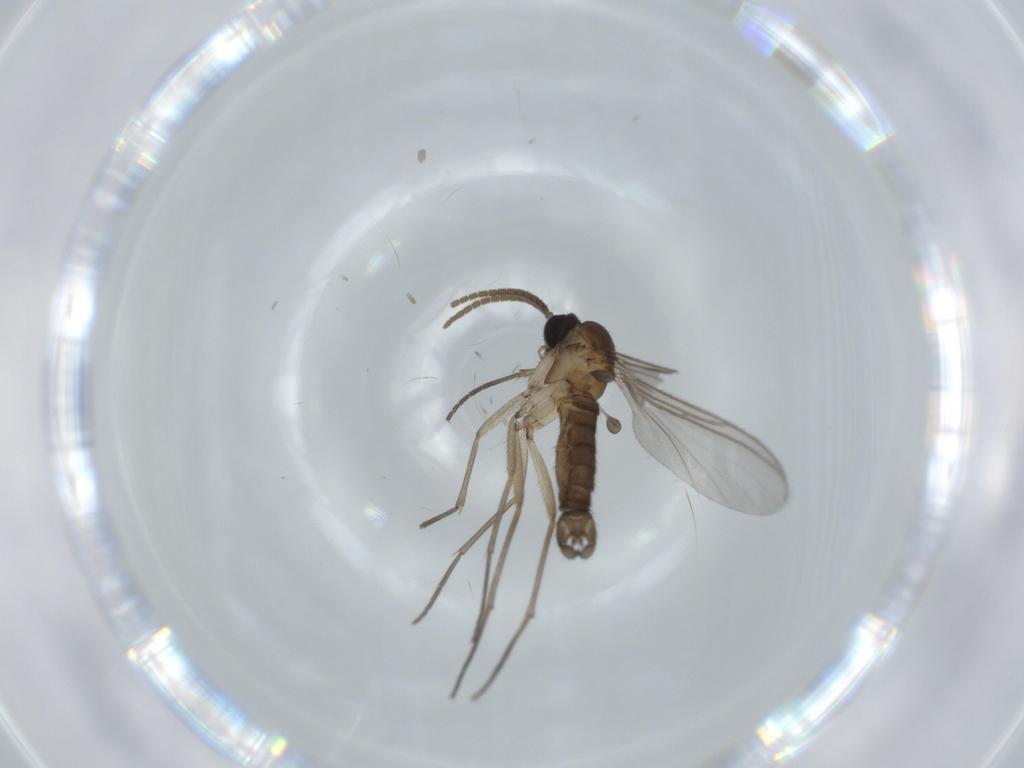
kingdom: Animalia
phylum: Arthropoda
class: Insecta
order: Diptera
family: Sciaridae
